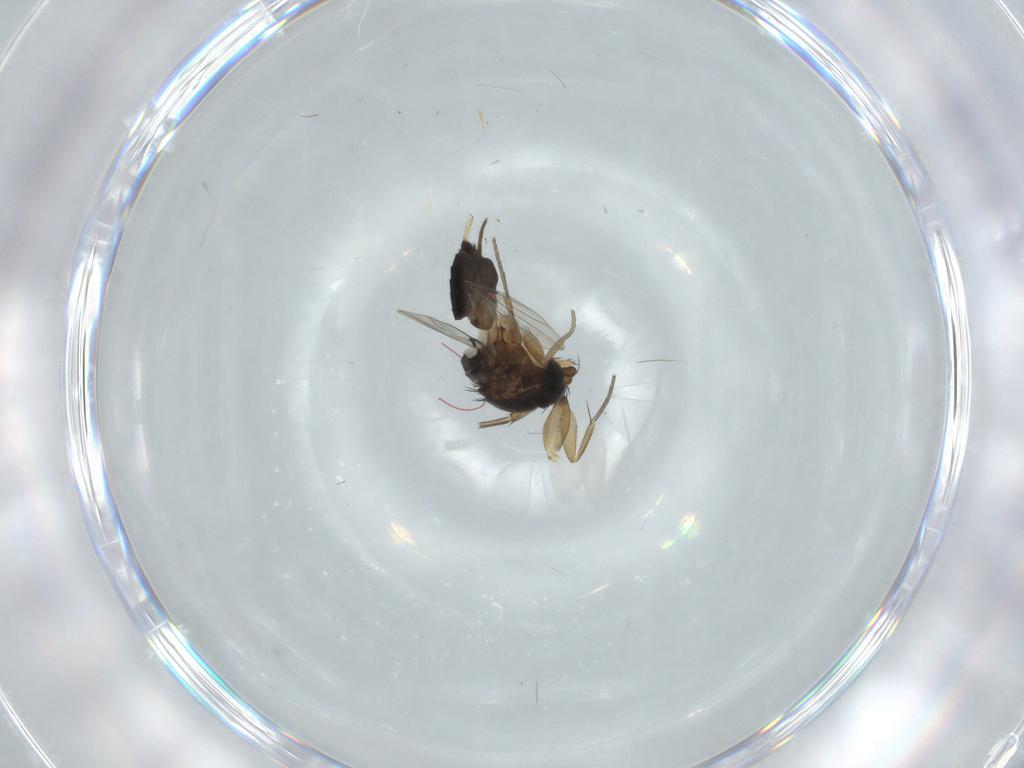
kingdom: Animalia
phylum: Arthropoda
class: Insecta
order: Diptera
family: Phoridae
